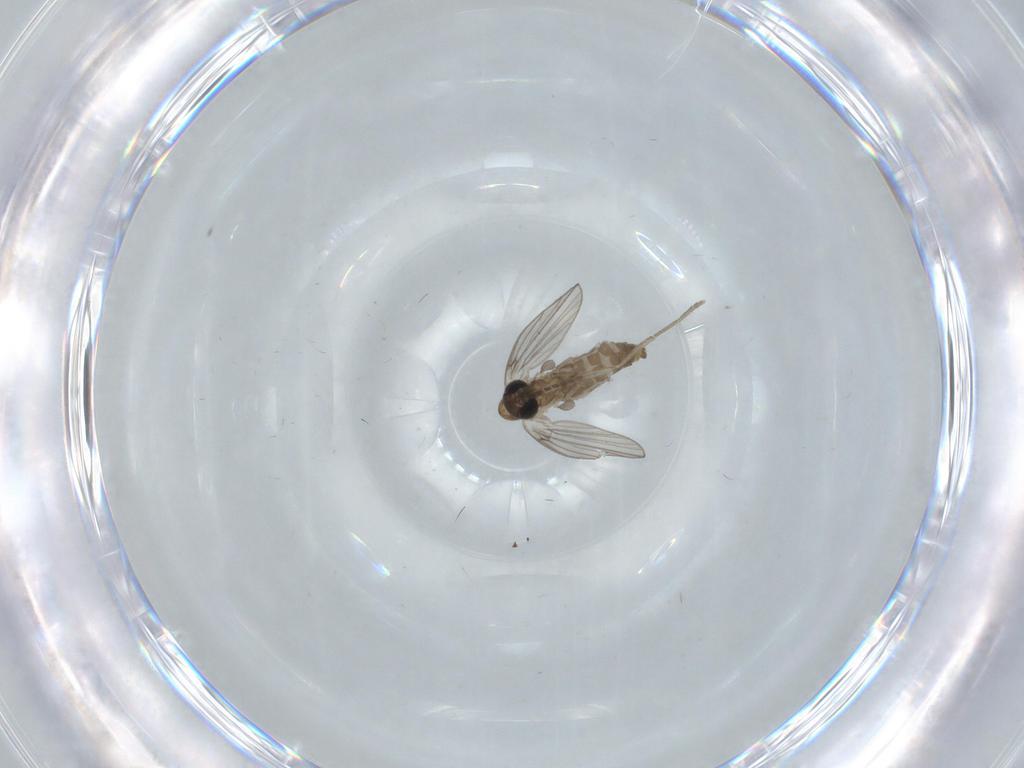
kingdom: Animalia
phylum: Arthropoda
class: Insecta
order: Diptera
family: Psychodidae
